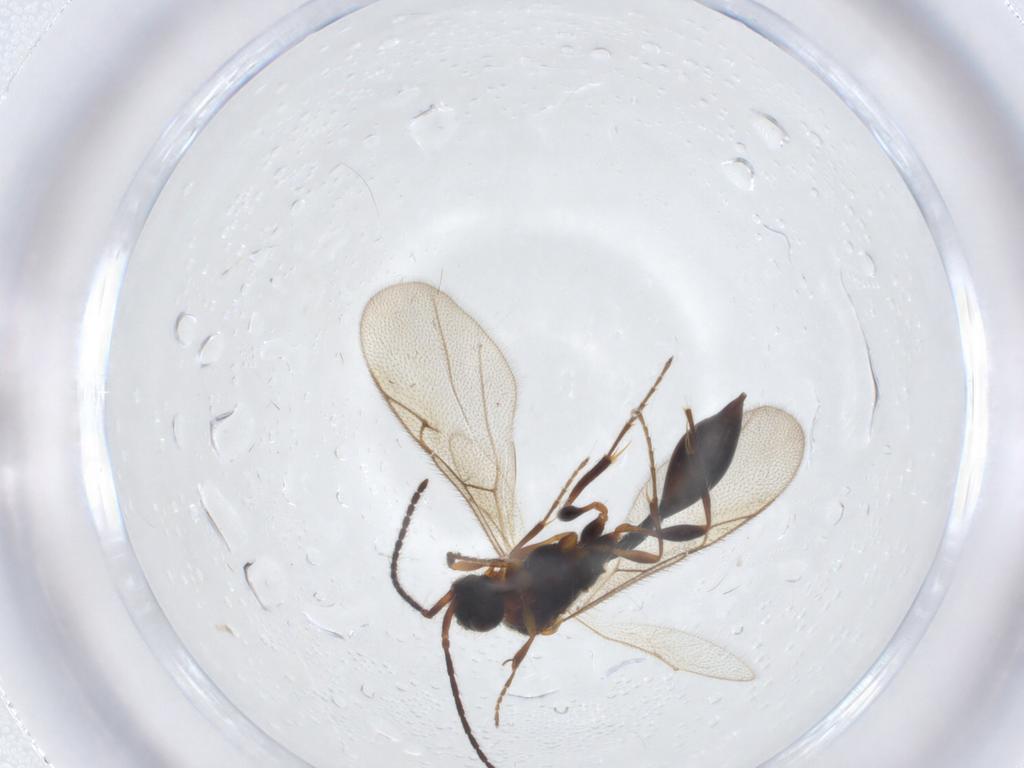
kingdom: Animalia
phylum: Arthropoda
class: Insecta
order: Hymenoptera
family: Diapriidae
